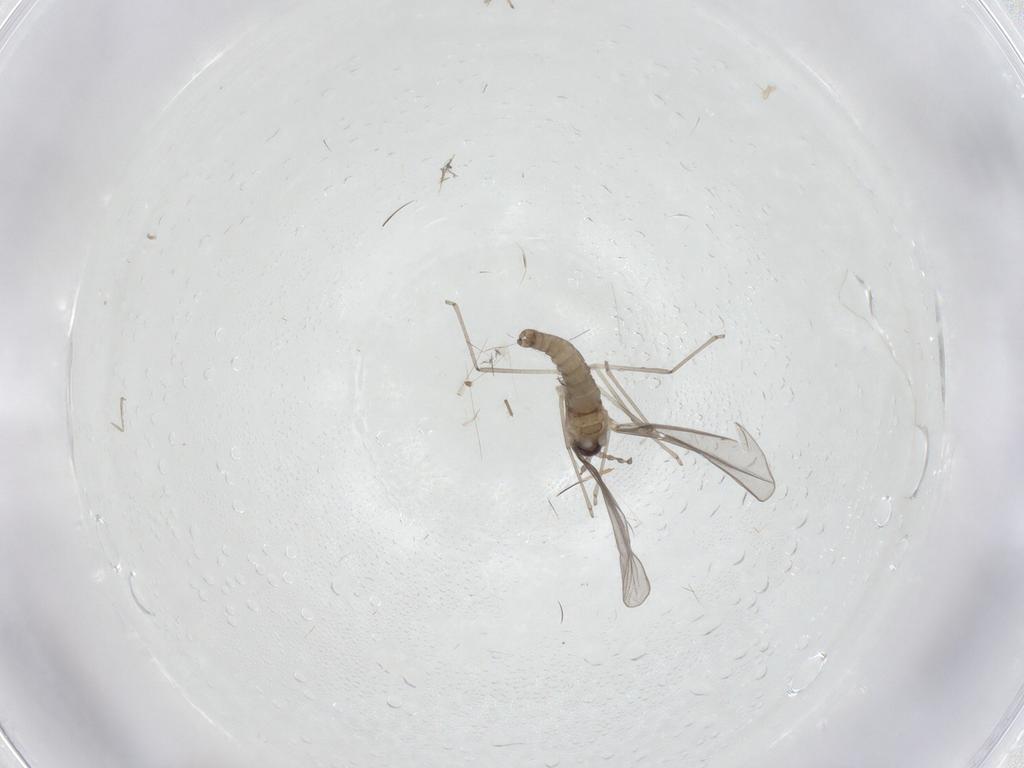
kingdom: Animalia
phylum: Arthropoda
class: Insecta
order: Diptera
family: Cecidomyiidae
